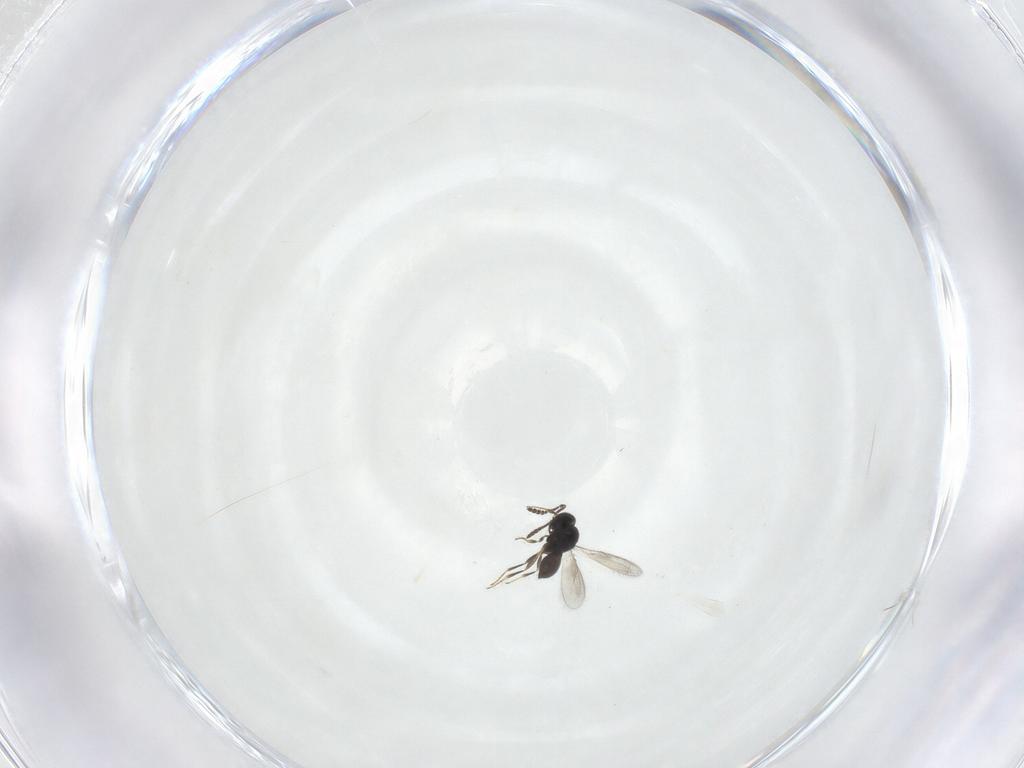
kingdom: Animalia
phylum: Arthropoda
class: Insecta
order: Hymenoptera
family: Scelionidae
